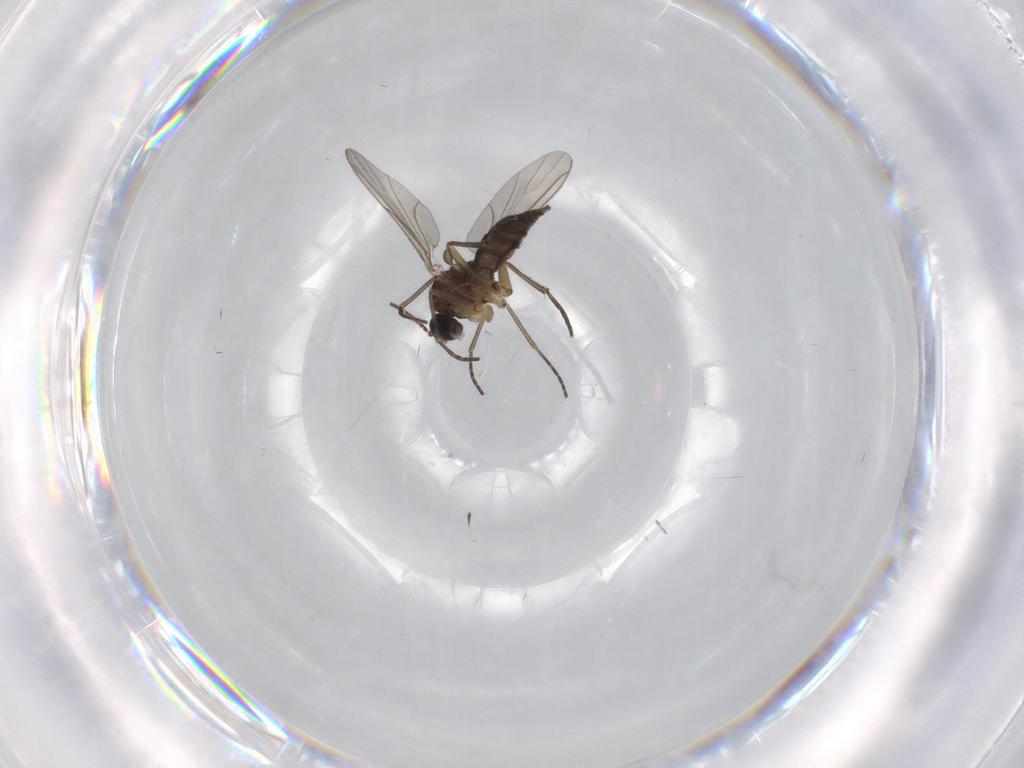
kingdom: Animalia
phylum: Arthropoda
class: Insecta
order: Diptera
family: Sciaridae
